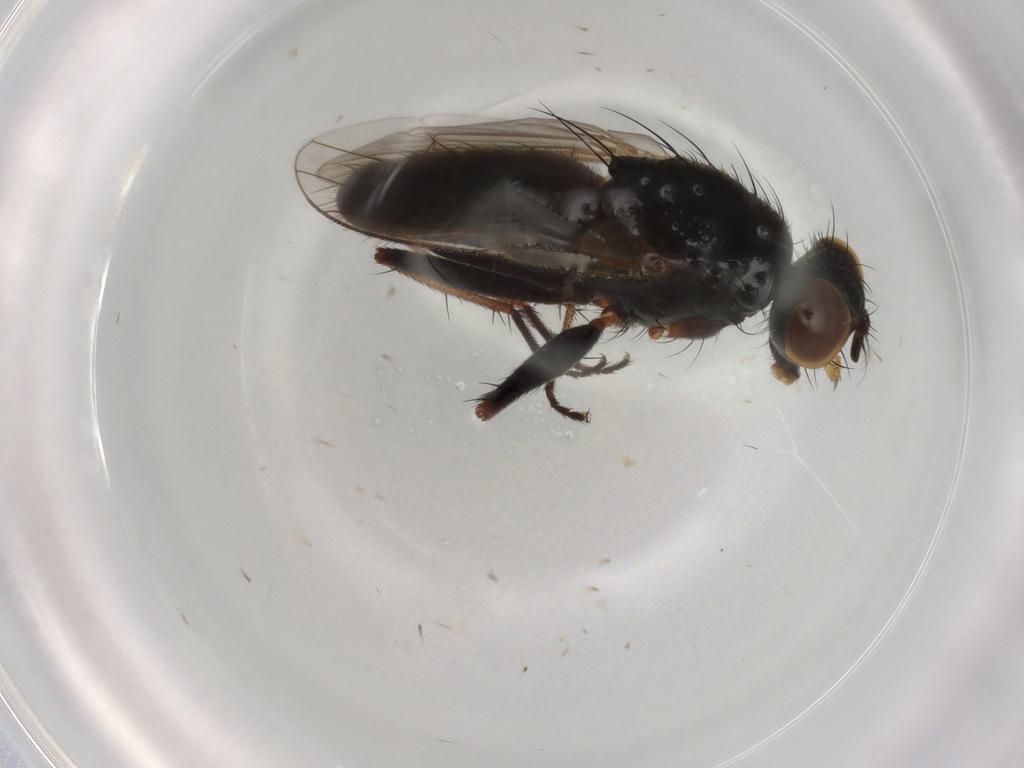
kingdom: Animalia
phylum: Arthropoda
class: Insecta
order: Diptera
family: Muscidae
